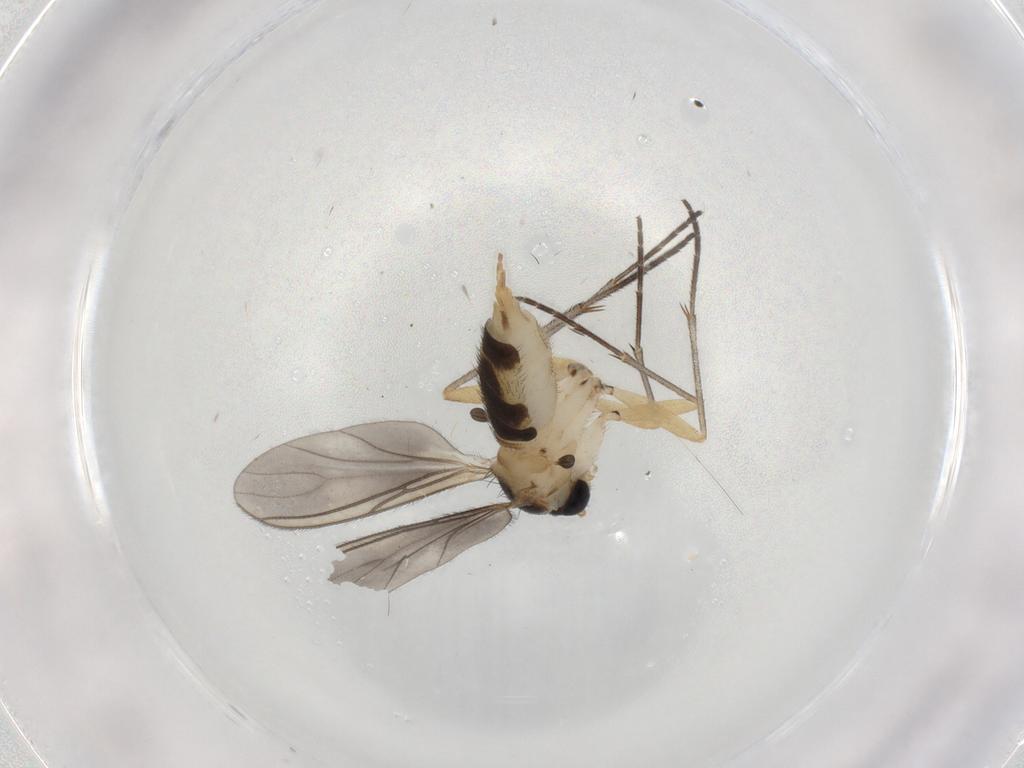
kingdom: Animalia
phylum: Arthropoda
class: Insecta
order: Diptera
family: Sciaridae
